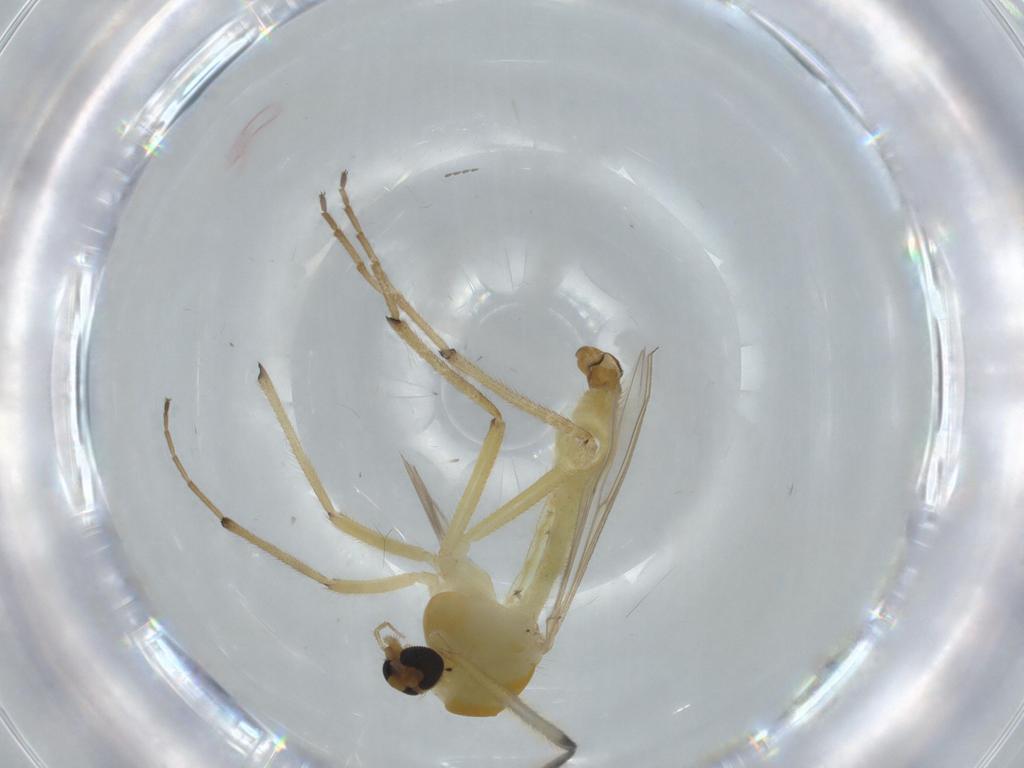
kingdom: Animalia
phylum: Arthropoda
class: Insecta
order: Diptera
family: Chironomidae
